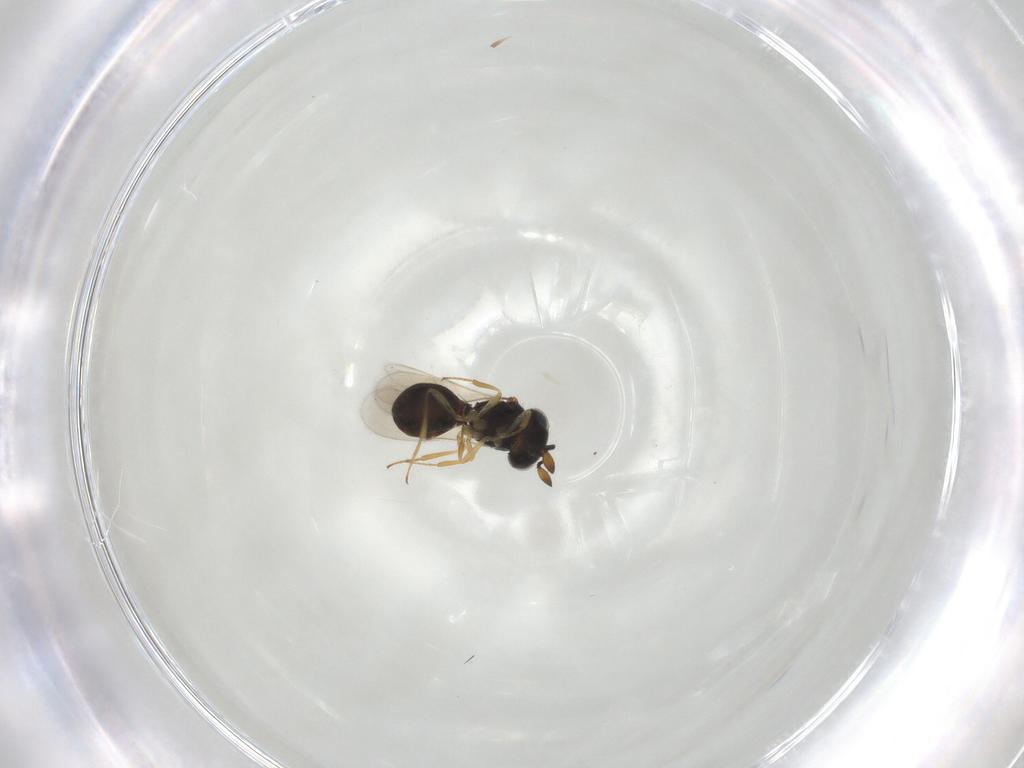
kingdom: Animalia
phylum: Arthropoda
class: Insecta
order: Hymenoptera
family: Scelionidae
